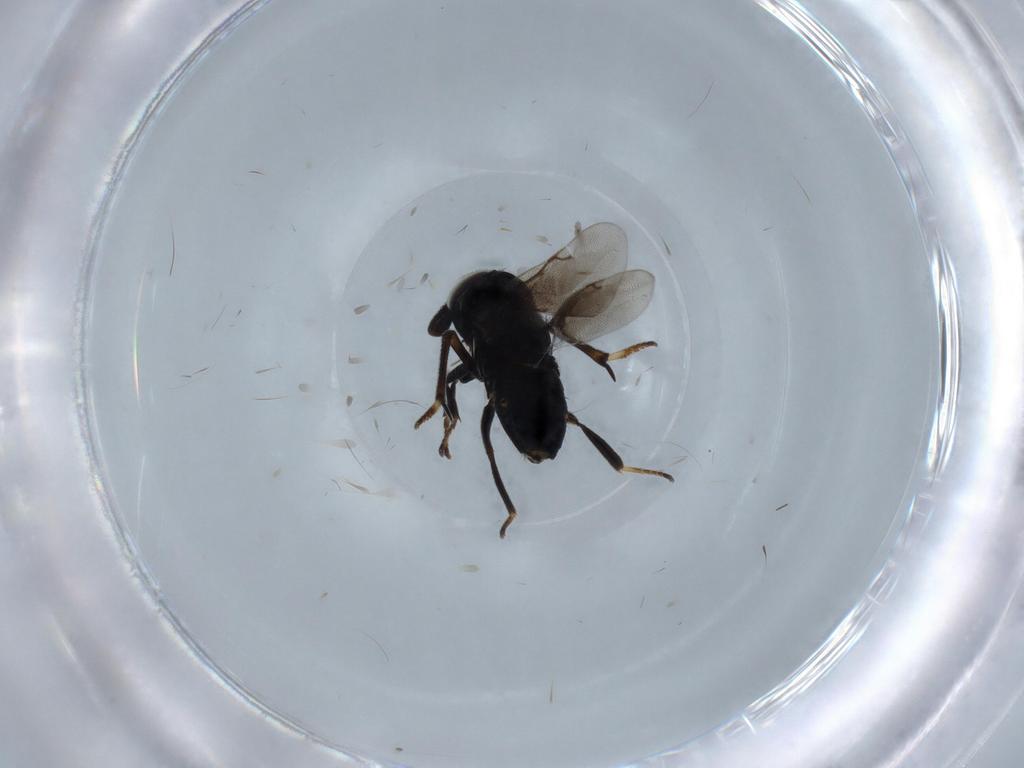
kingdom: Animalia
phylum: Arthropoda
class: Insecta
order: Hymenoptera
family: Encyrtidae
